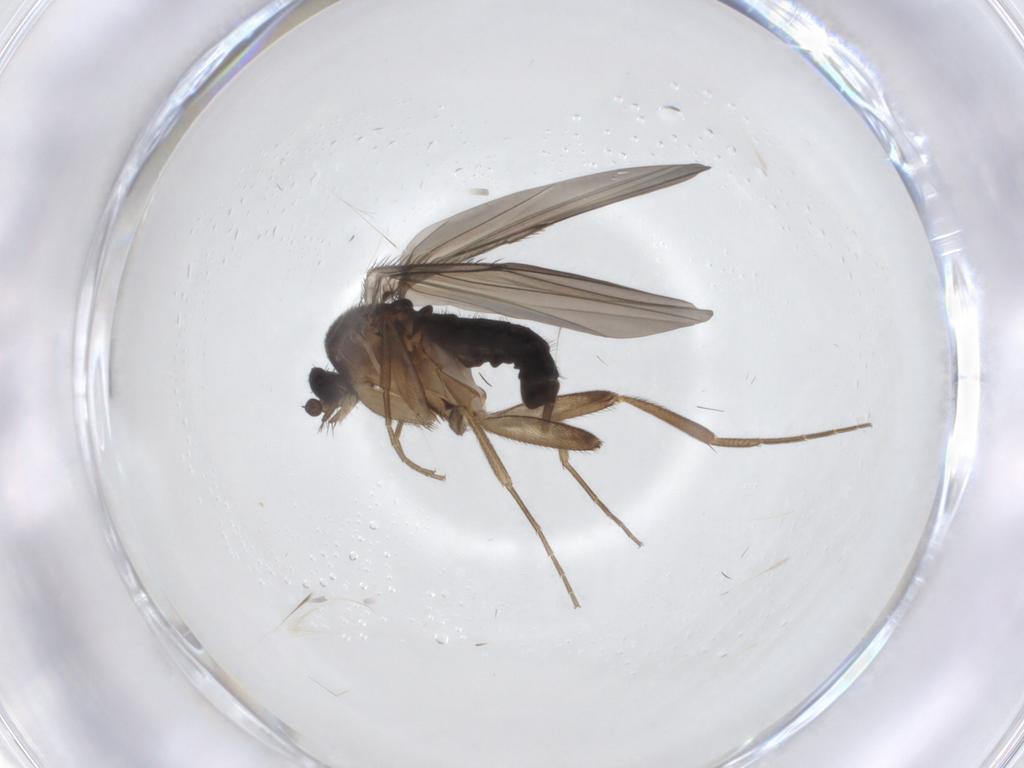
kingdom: Animalia
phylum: Arthropoda
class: Insecta
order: Diptera
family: Phoridae
